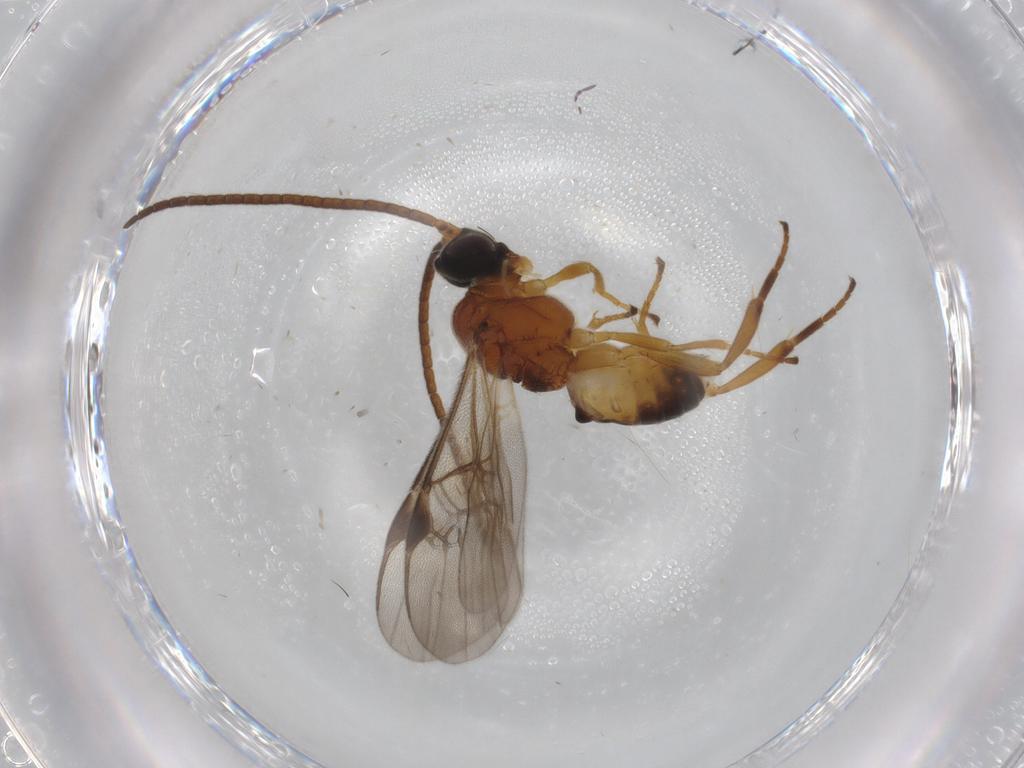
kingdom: Animalia
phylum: Arthropoda
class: Insecta
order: Hymenoptera
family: Braconidae
